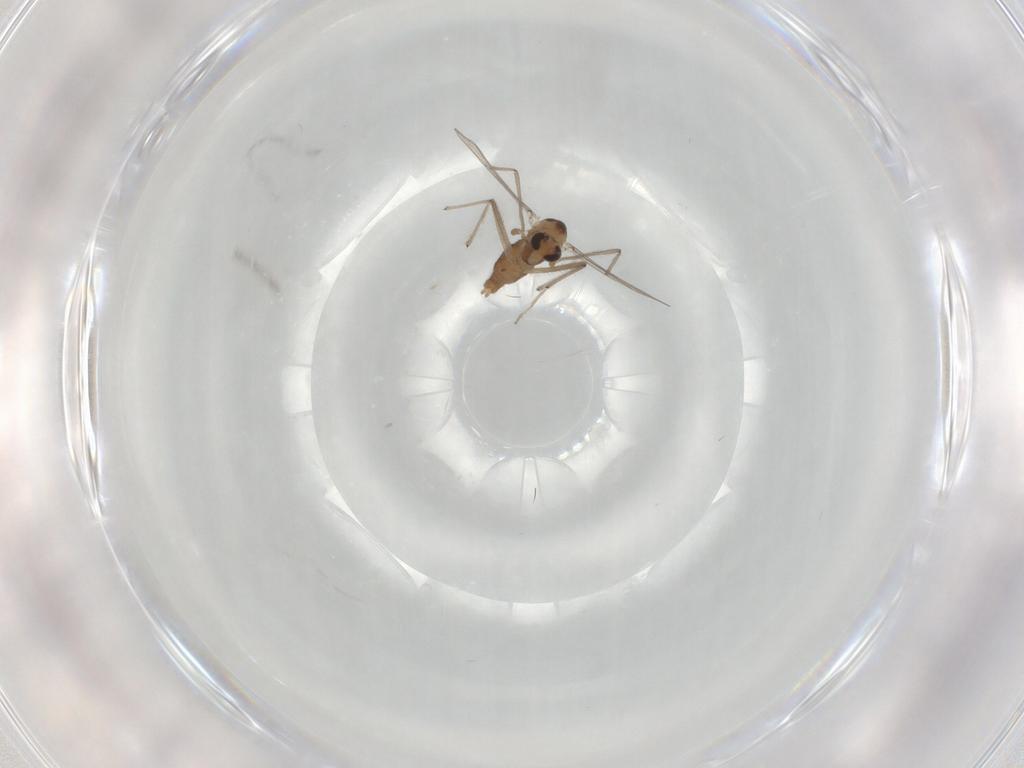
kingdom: Animalia
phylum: Arthropoda
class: Insecta
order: Diptera
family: Chironomidae
